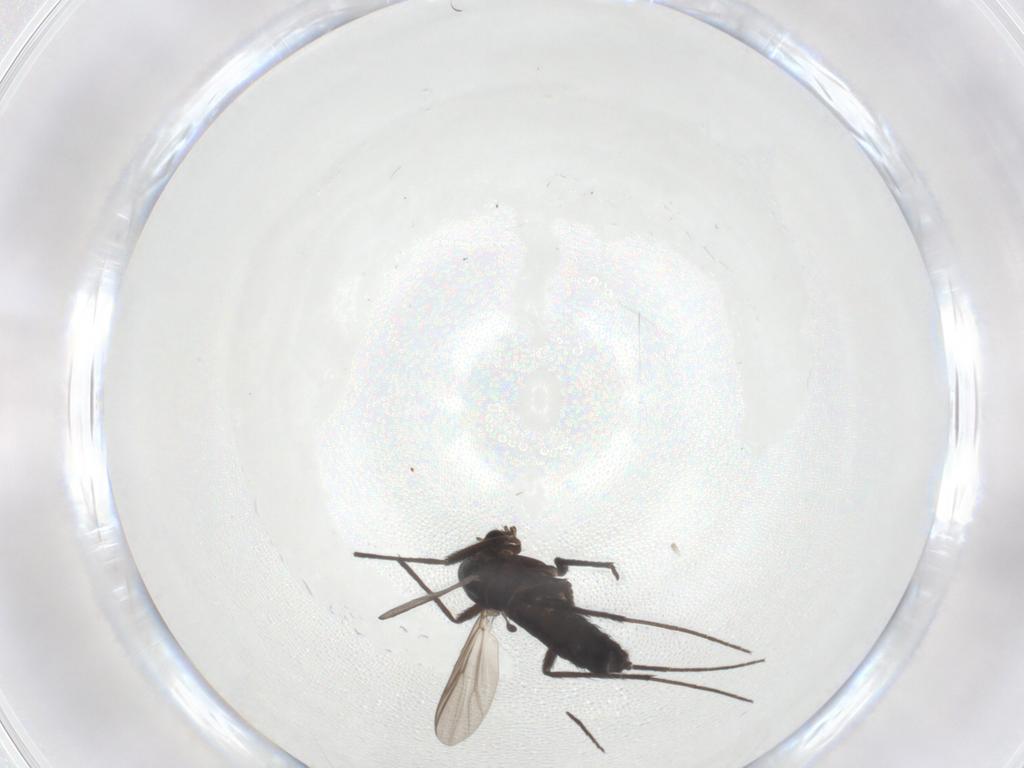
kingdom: Animalia
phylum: Arthropoda
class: Insecta
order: Diptera
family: Chironomidae
